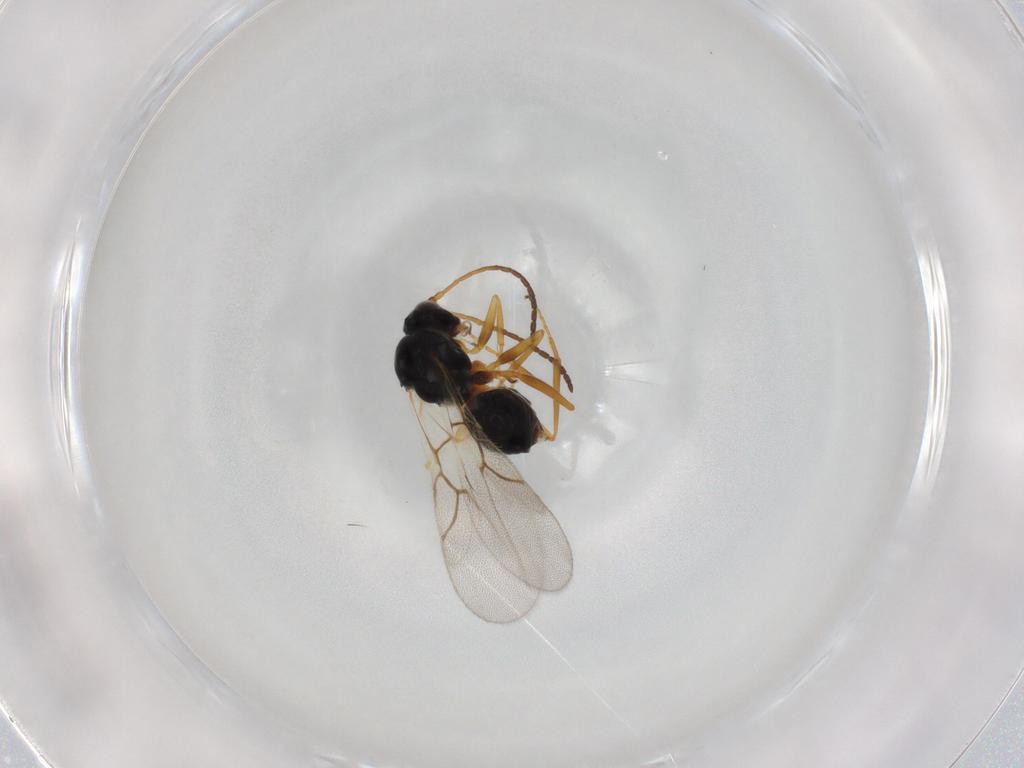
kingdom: Animalia
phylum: Arthropoda
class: Insecta
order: Hymenoptera
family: Figitidae
